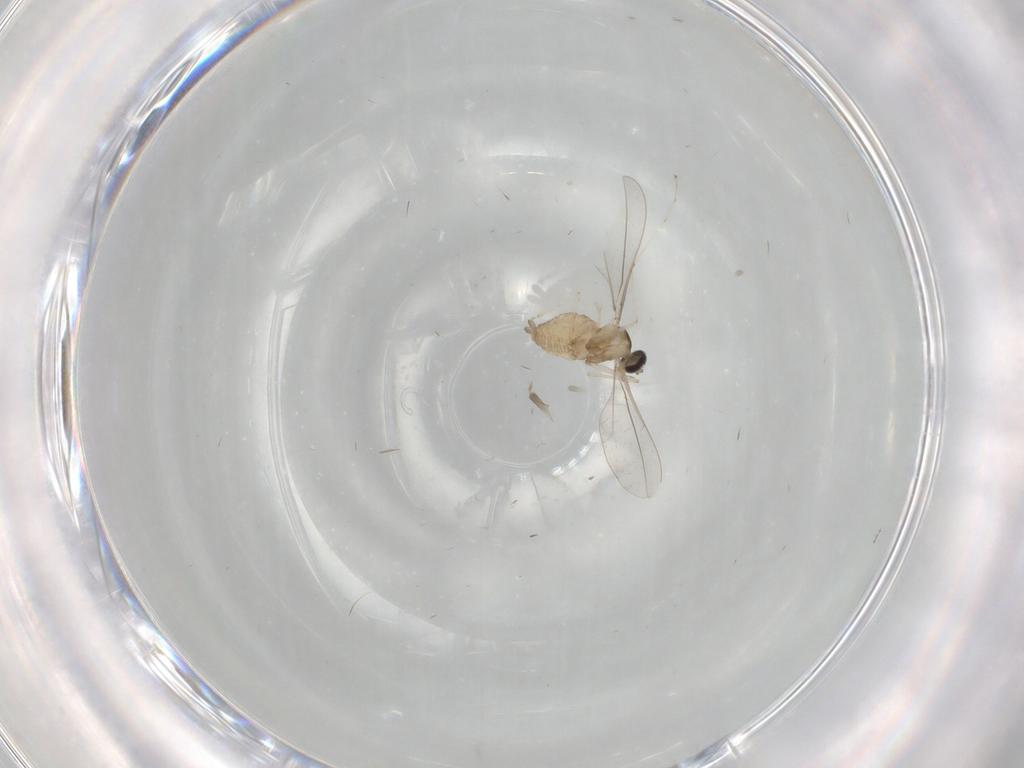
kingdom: Animalia
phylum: Arthropoda
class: Insecta
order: Diptera
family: Cecidomyiidae
